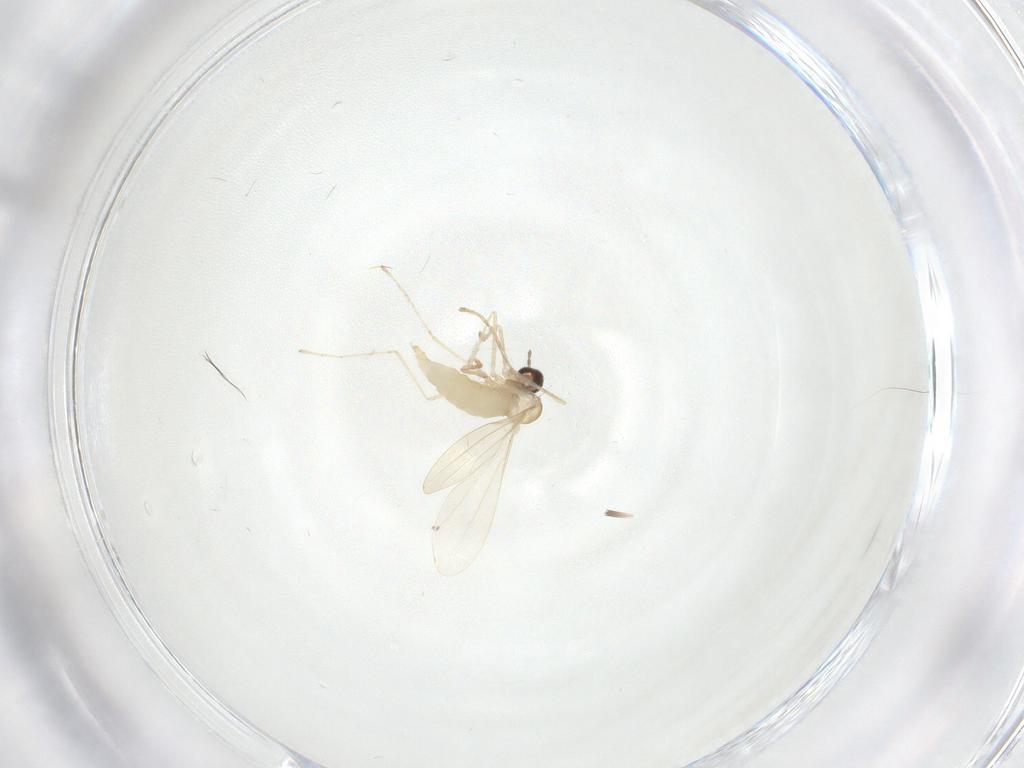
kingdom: Animalia
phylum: Arthropoda
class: Insecta
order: Diptera
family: Cecidomyiidae
